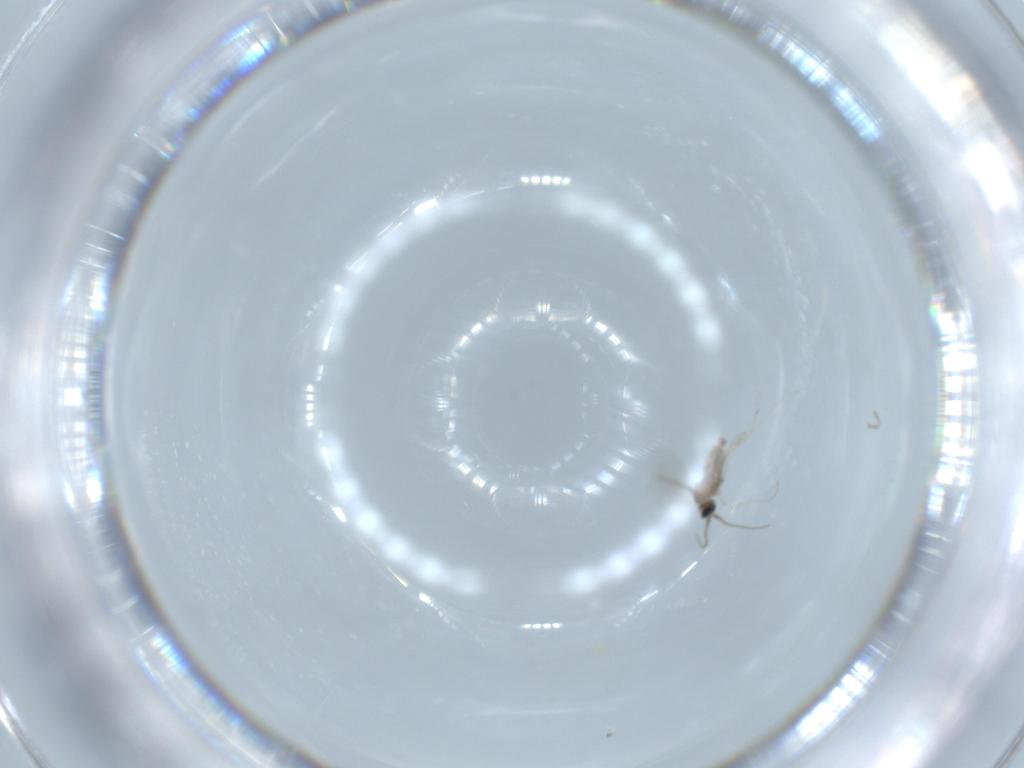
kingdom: Animalia
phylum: Arthropoda
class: Insecta
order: Diptera
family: Cecidomyiidae
